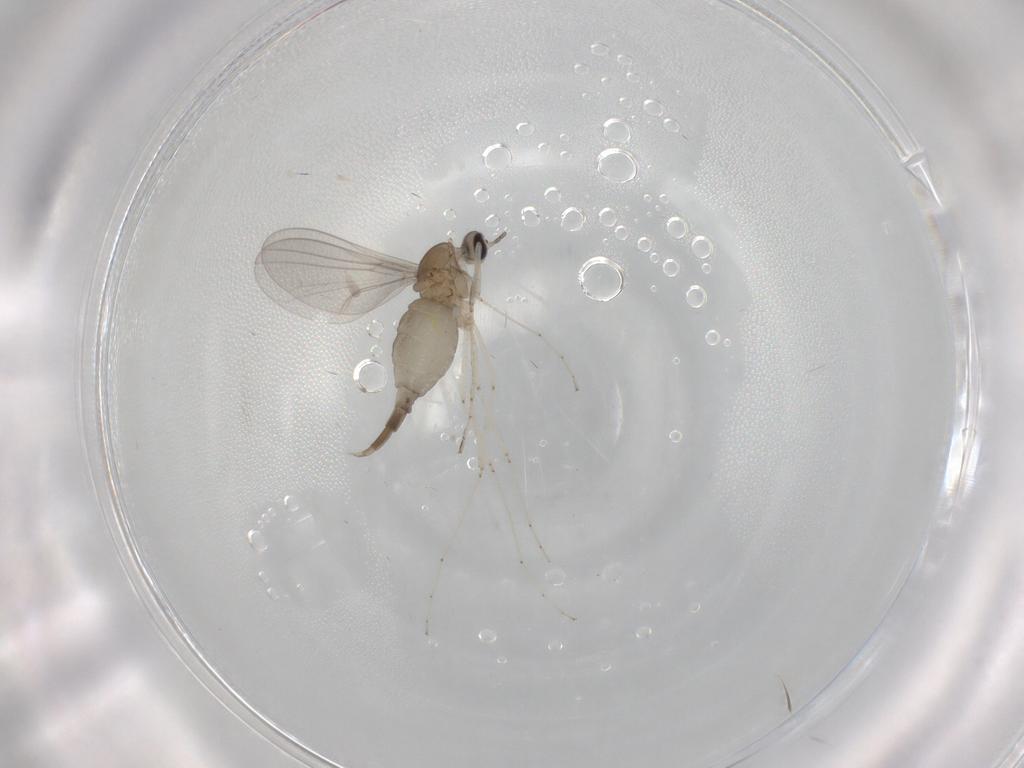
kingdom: Animalia
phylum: Arthropoda
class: Insecta
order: Diptera
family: Cecidomyiidae
